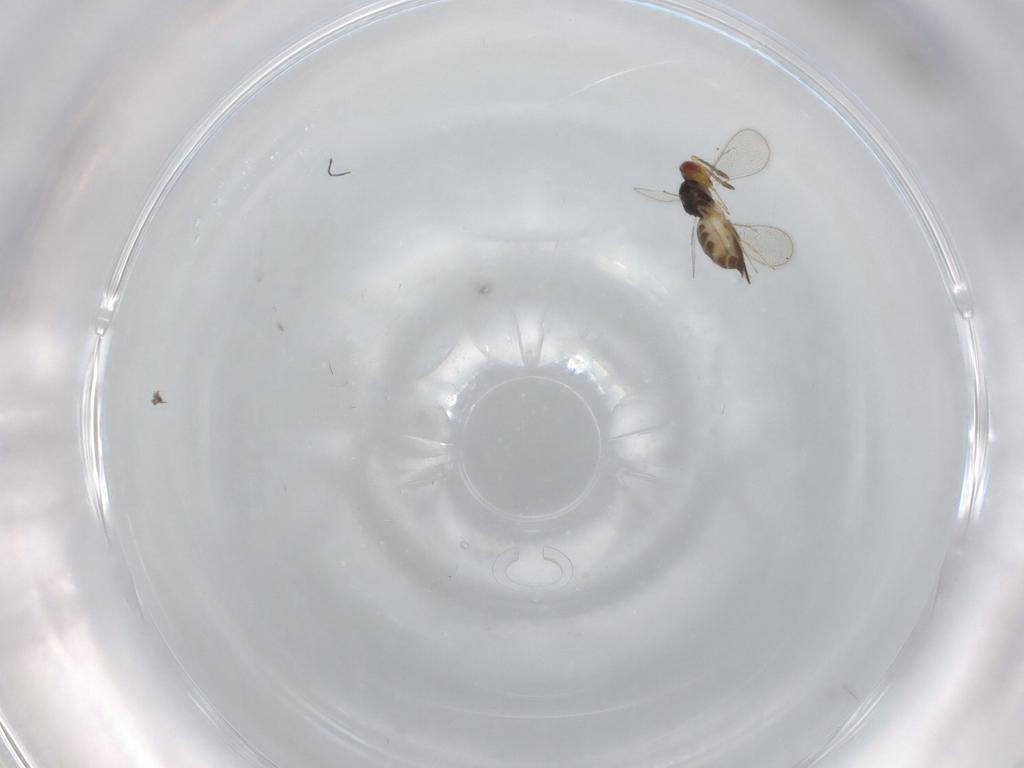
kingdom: Animalia
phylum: Arthropoda
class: Insecta
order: Hymenoptera
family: Eulophidae
